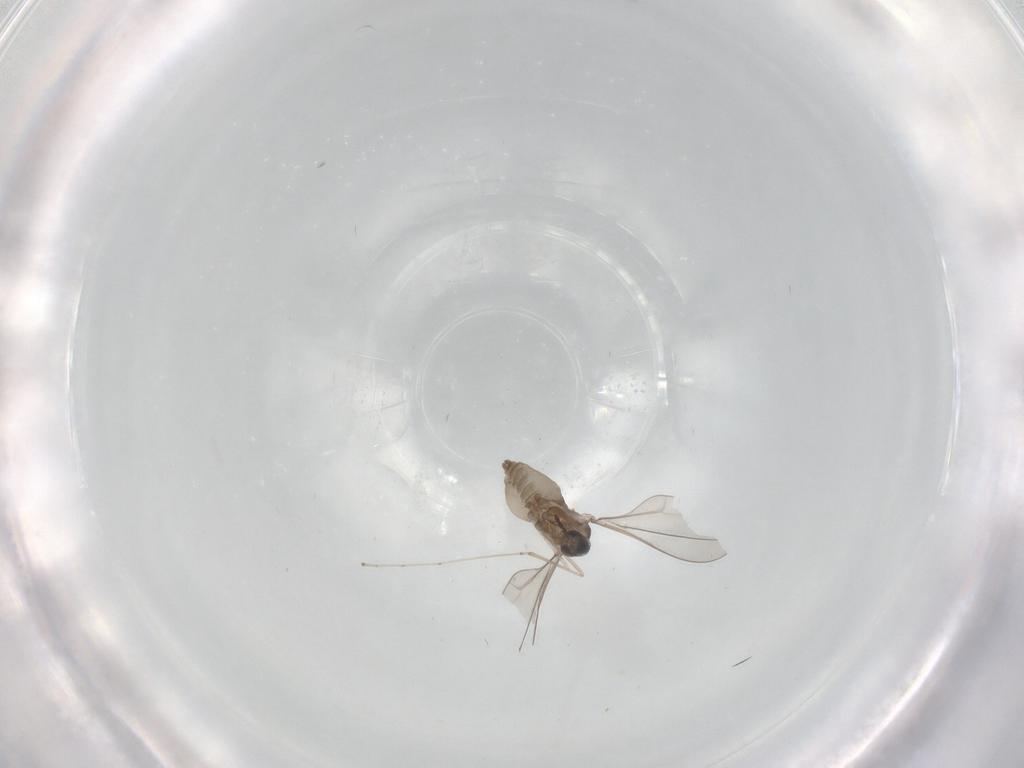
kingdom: Animalia
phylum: Arthropoda
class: Insecta
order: Diptera
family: Cecidomyiidae
